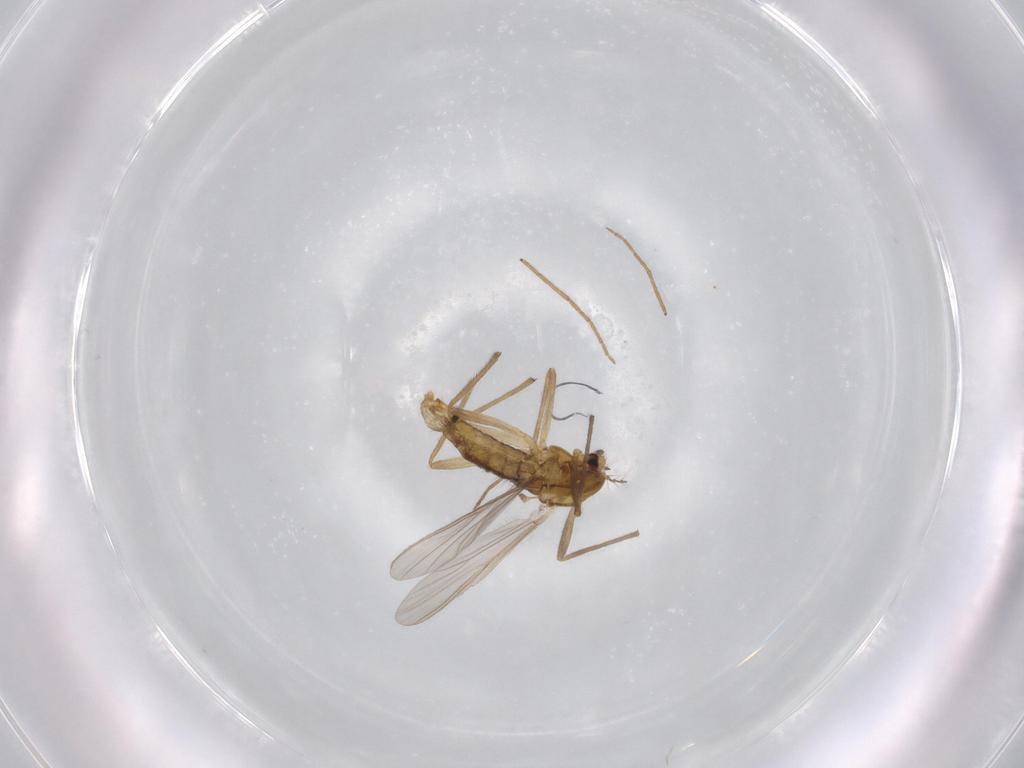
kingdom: Animalia
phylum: Arthropoda
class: Insecta
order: Diptera
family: Chironomidae
